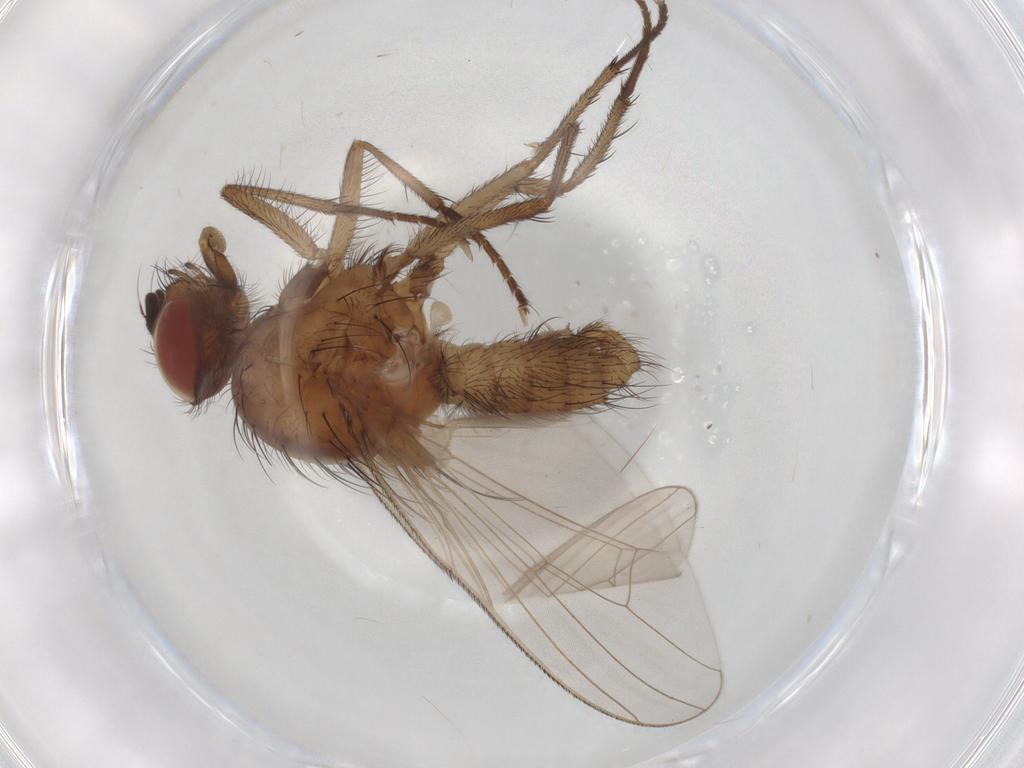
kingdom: Animalia
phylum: Arthropoda
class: Insecta
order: Diptera
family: Anthomyiidae
